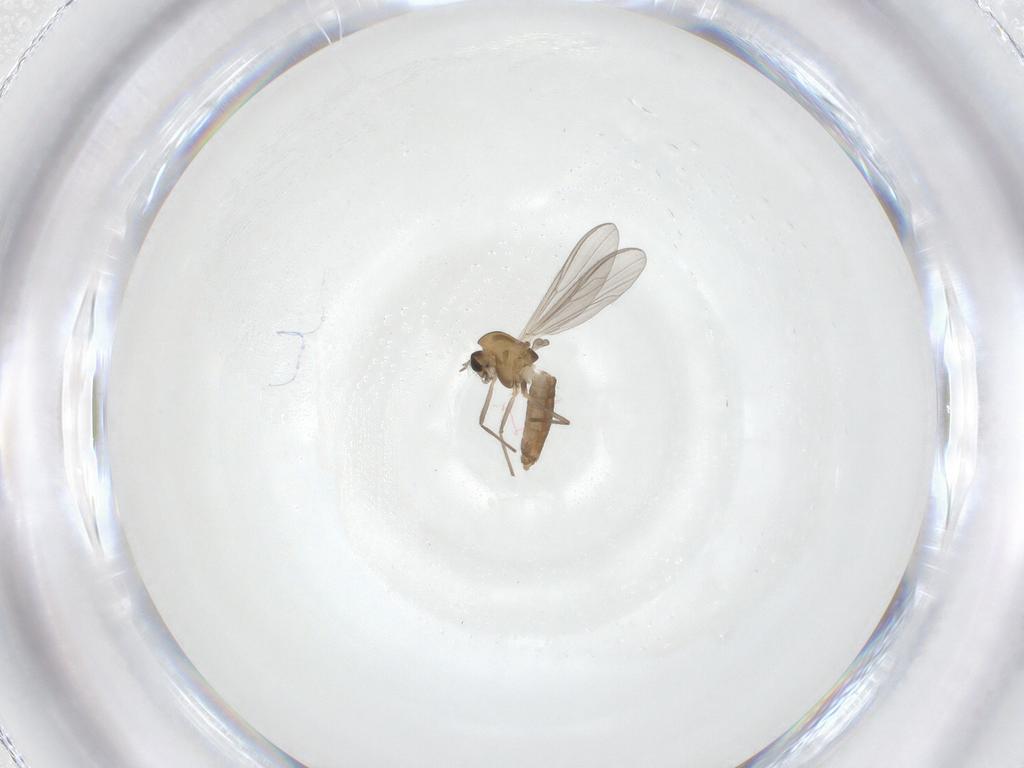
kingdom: Animalia
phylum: Arthropoda
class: Insecta
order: Diptera
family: Chironomidae
